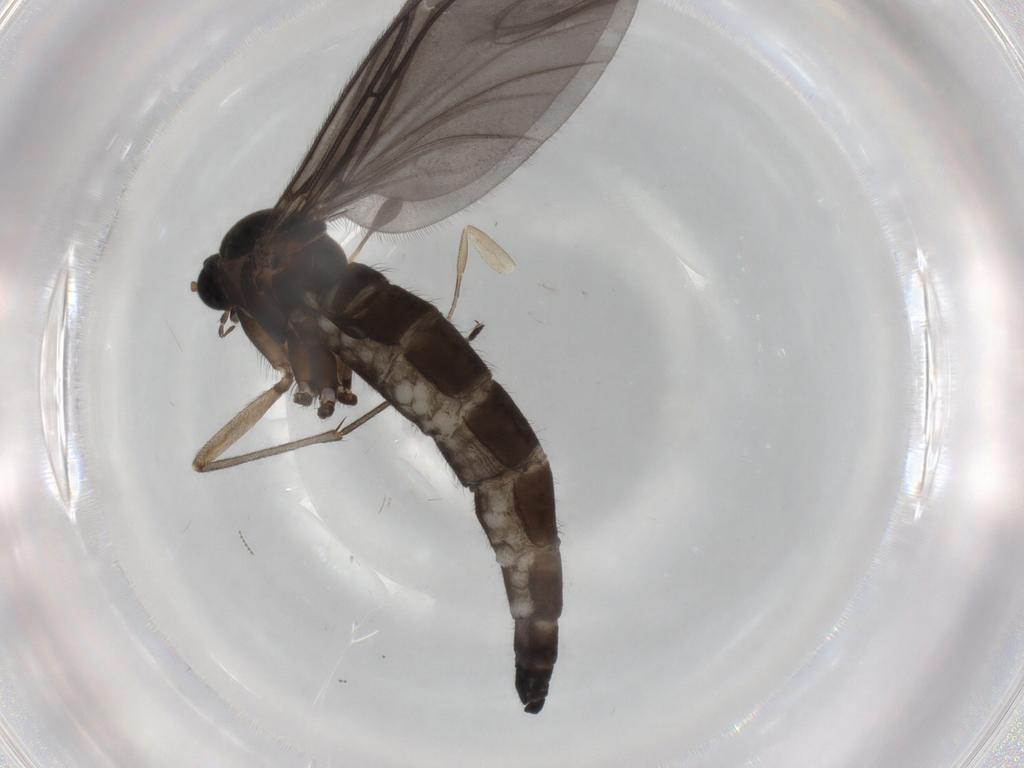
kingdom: Animalia
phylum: Arthropoda
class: Insecta
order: Diptera
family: Sciaridae
